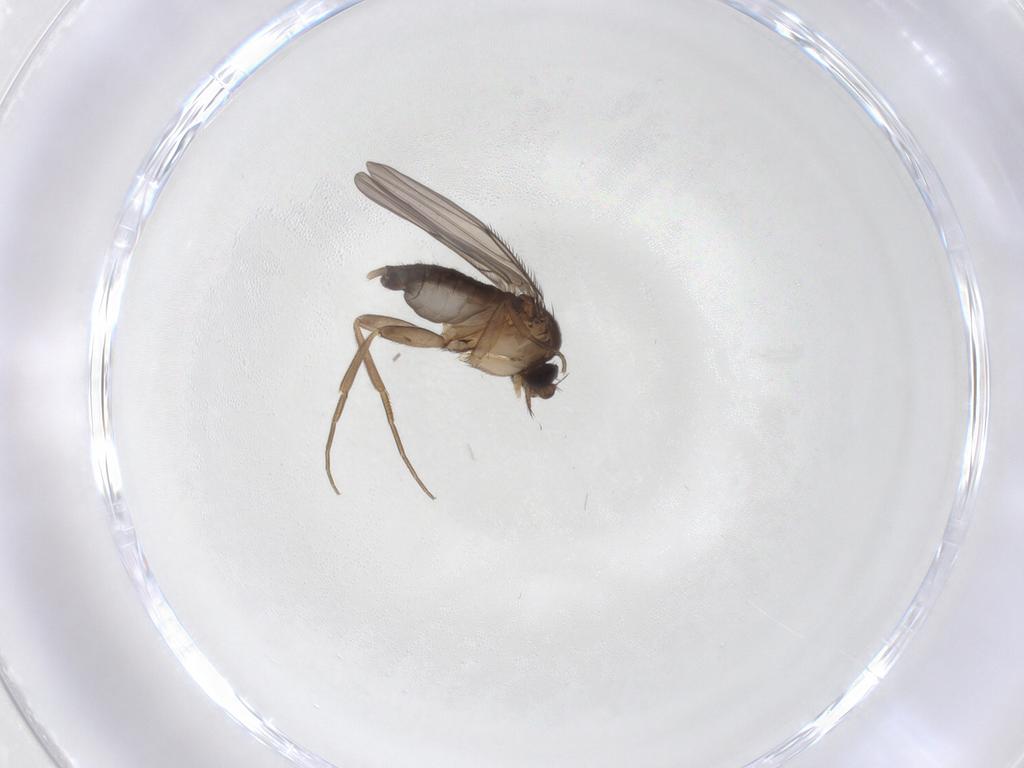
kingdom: Animalia
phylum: Arthropoda
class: Insecta
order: Diptera
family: Phoridae
